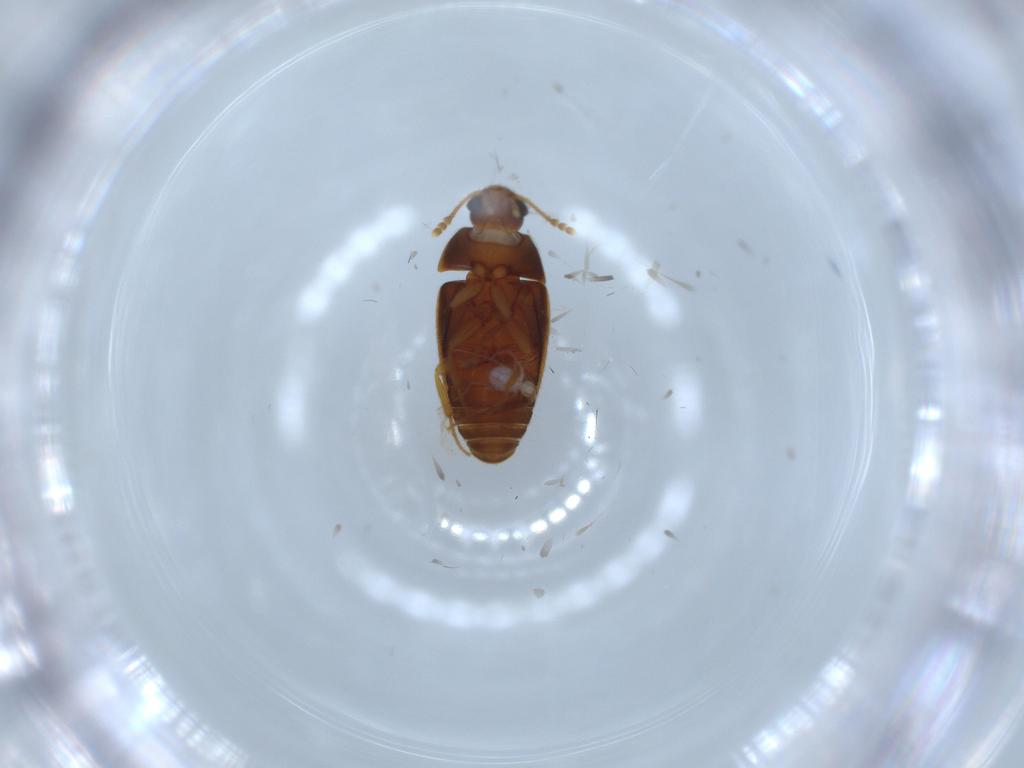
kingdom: Animalia
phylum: Arthropoda
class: Insecta
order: Coleoptera
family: Mycetophagidae
